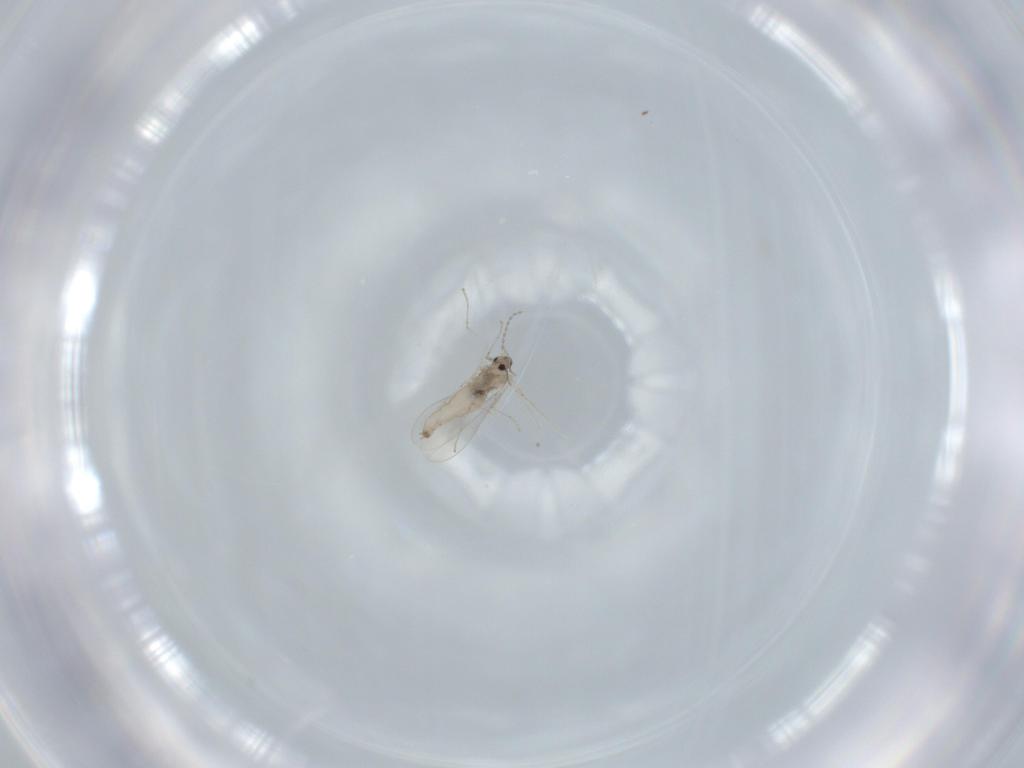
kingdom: Animalia
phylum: Arthropoda
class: Insecta
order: Diptera
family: Cecidomyiidae
